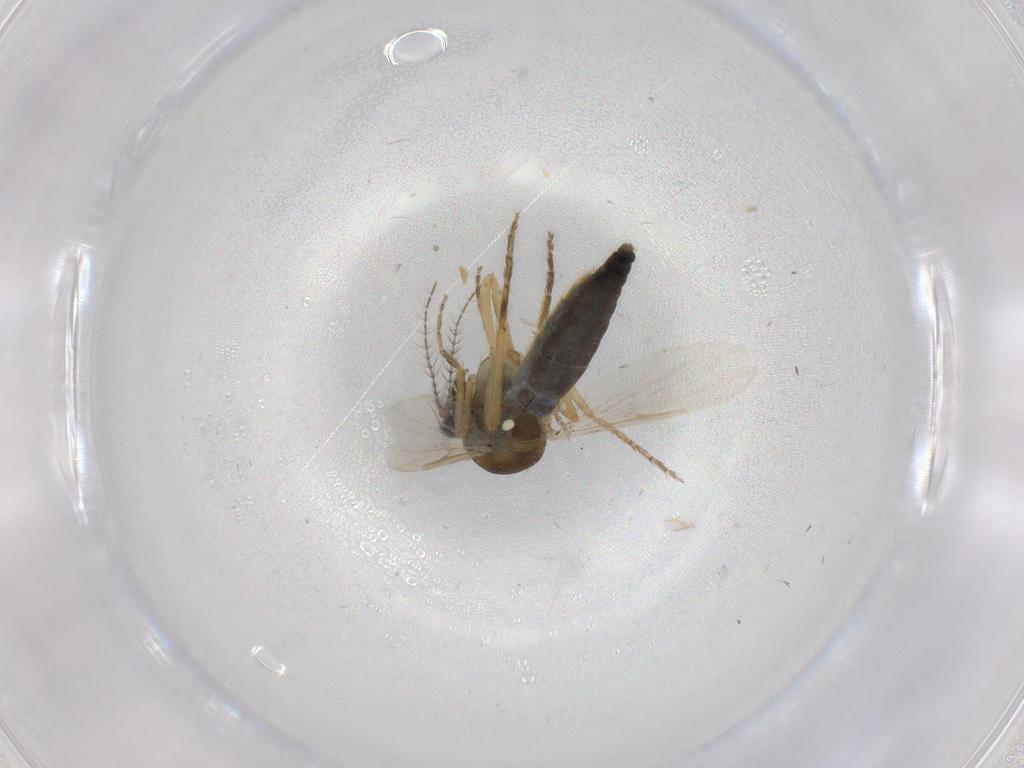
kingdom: Animalia
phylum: Arthropoda
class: Insecta
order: Diptera
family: Ceratopogonidae
